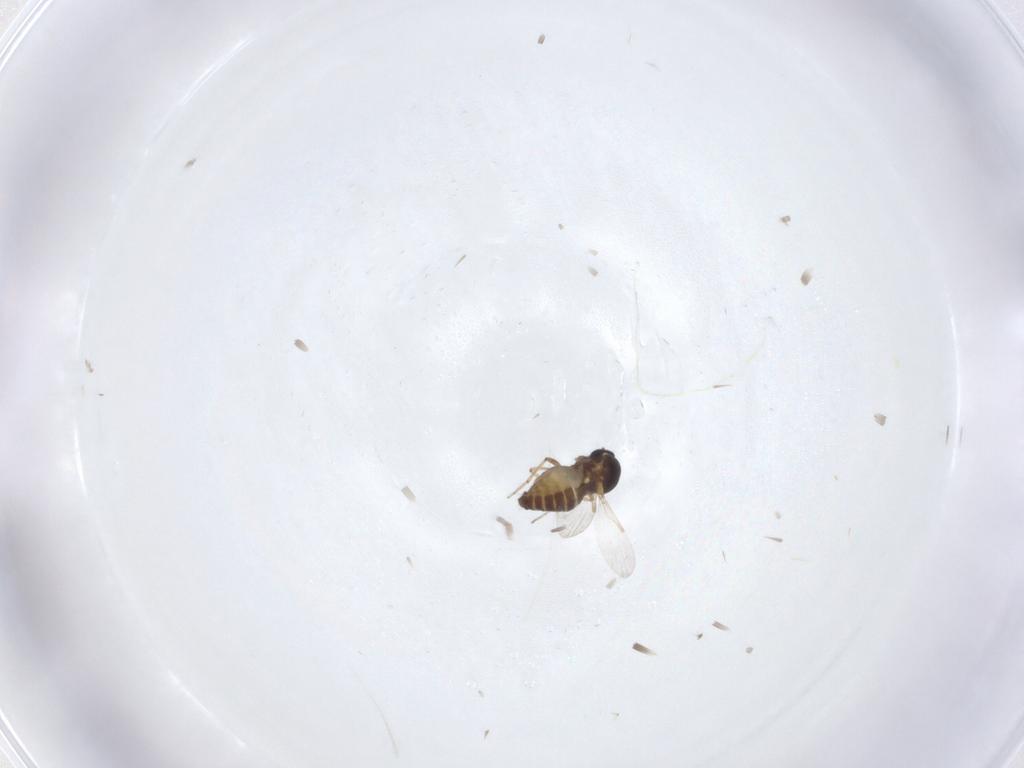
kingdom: Animalia
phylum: Arthropoda
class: Insecta
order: Diptera
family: Ceratopogonidae
